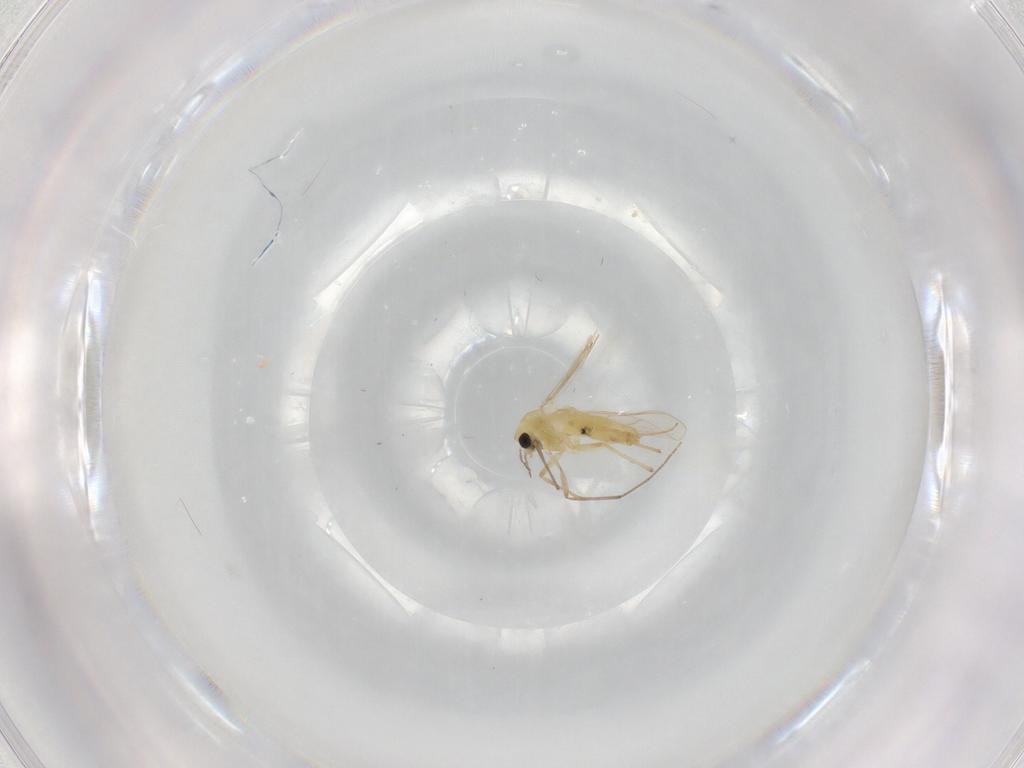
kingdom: Animalia
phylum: Arthropoda
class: Insecta
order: Diptera
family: Chironomidae
